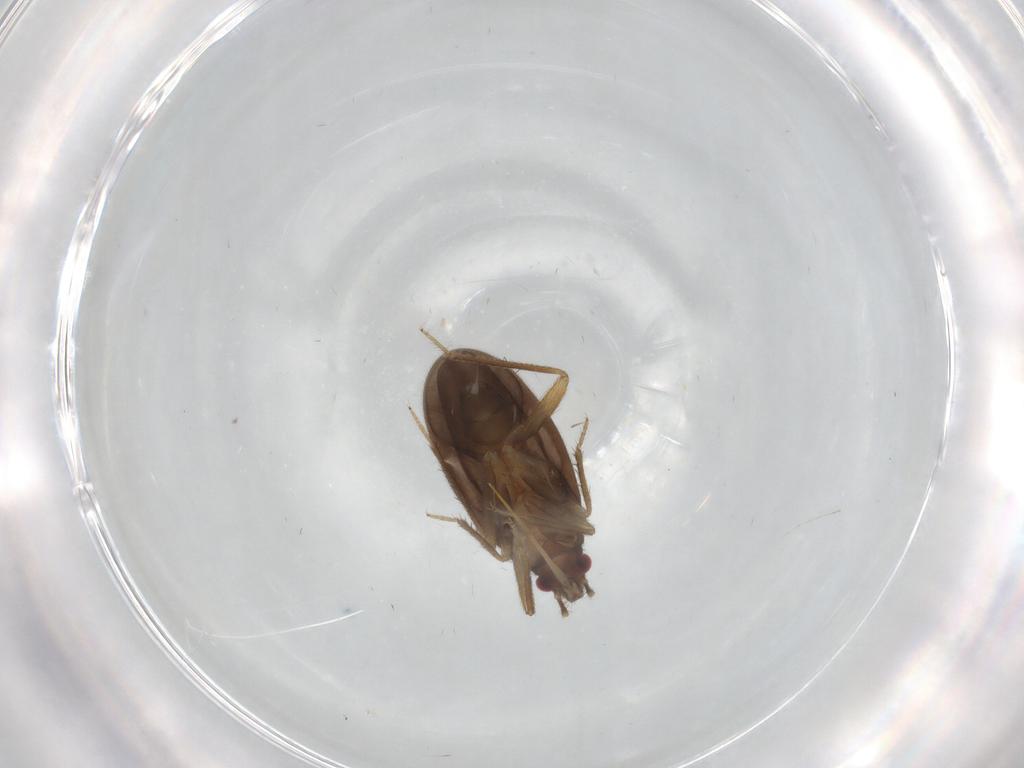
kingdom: Animalia
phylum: Arthropoda
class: Insecta
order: Hemiptera
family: Ceratocombidae
